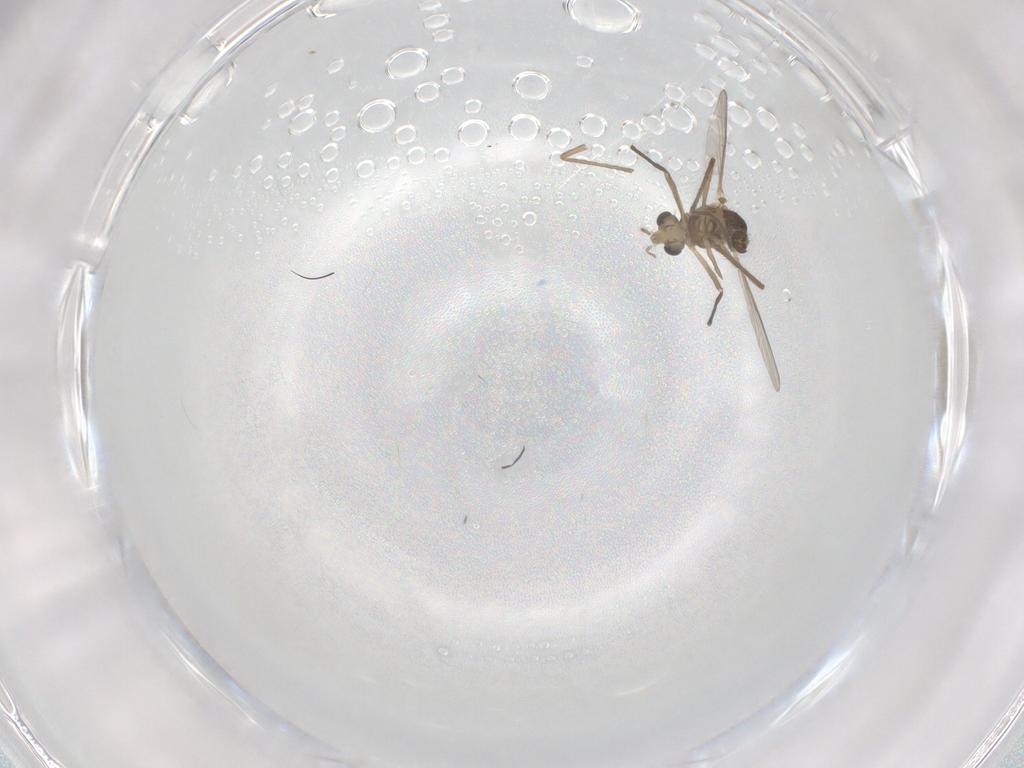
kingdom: Animalia
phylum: Arthropoda
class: Insecta
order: Diptera
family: Chironomidae
